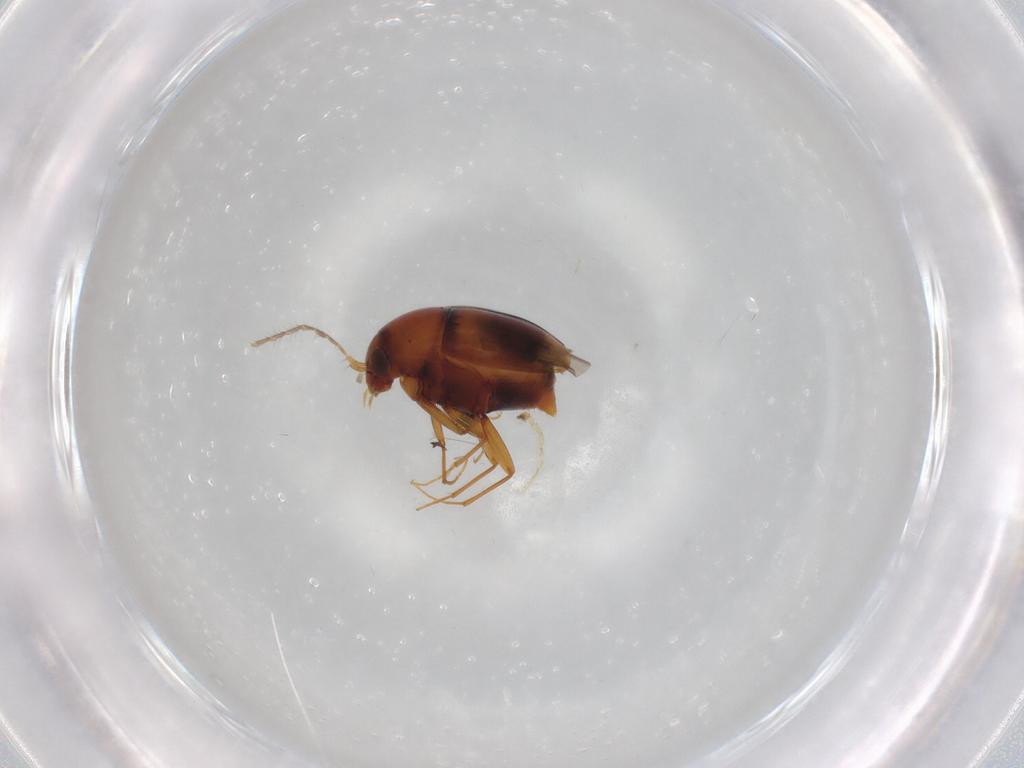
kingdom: Animalia
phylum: Arthropoda
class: Insecta
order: Coleoptera
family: Staphylinidae
